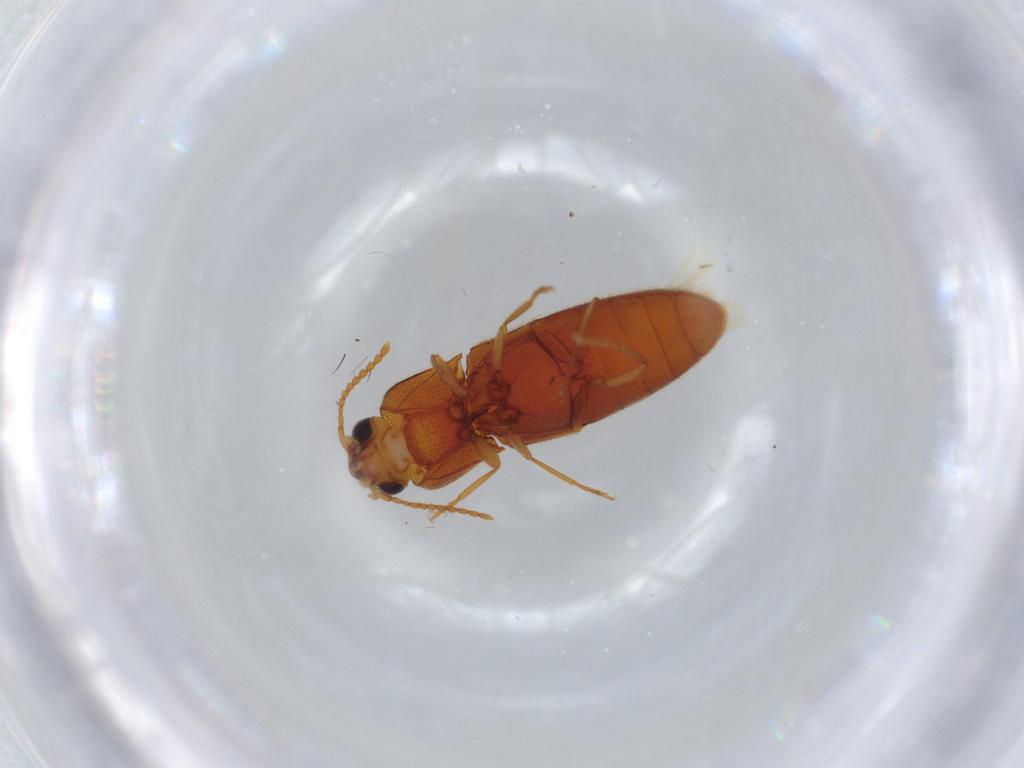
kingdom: Animalia
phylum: Arthropoda
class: Insecta
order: Coleoptera
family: Elateridae
